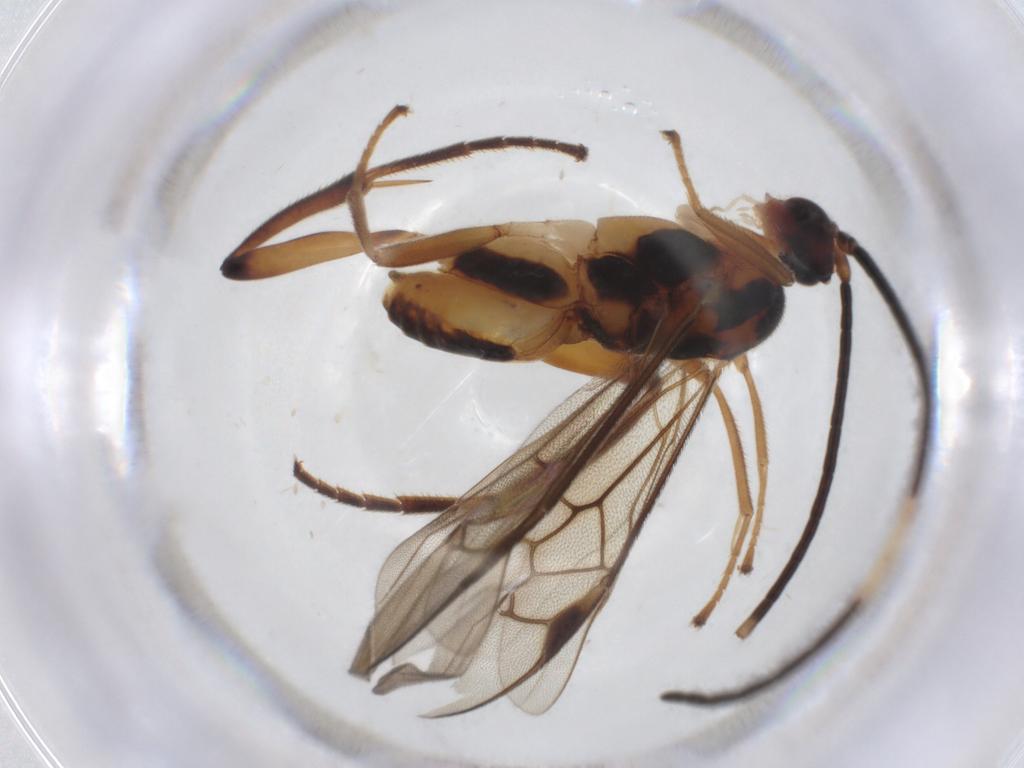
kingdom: Animalia
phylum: Arthropoda
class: Insecta
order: Hymenoptera
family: Braconidae
